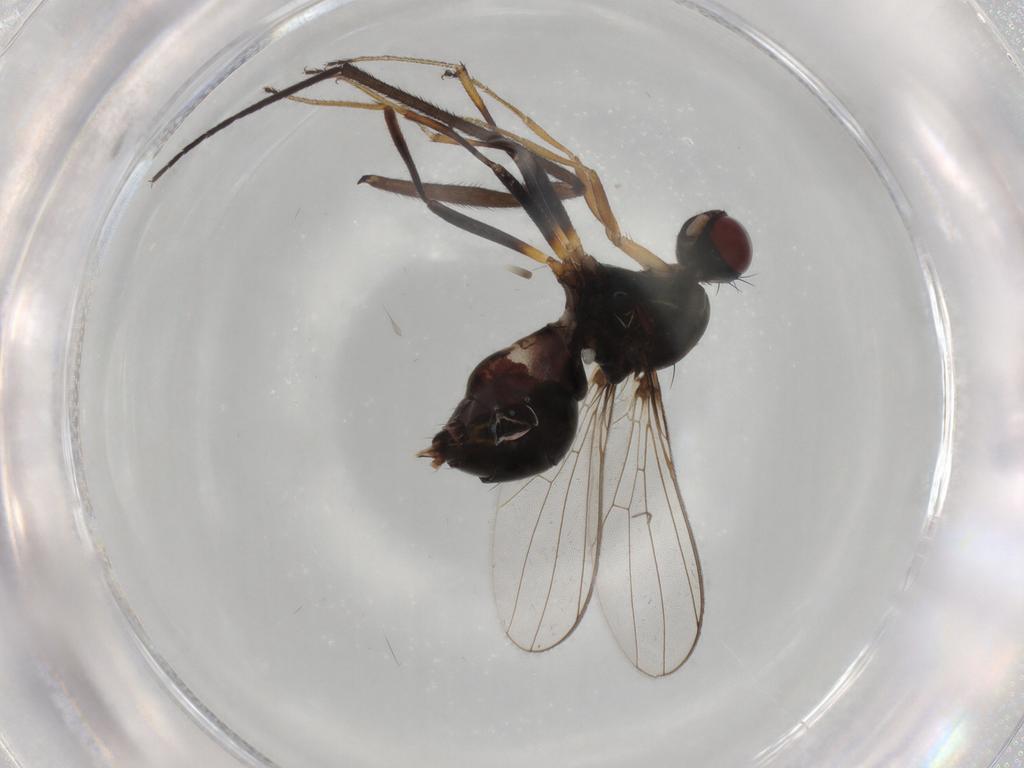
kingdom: Animalia
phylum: Arthropoda
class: Insecta
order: Diptera
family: Sepsidae
